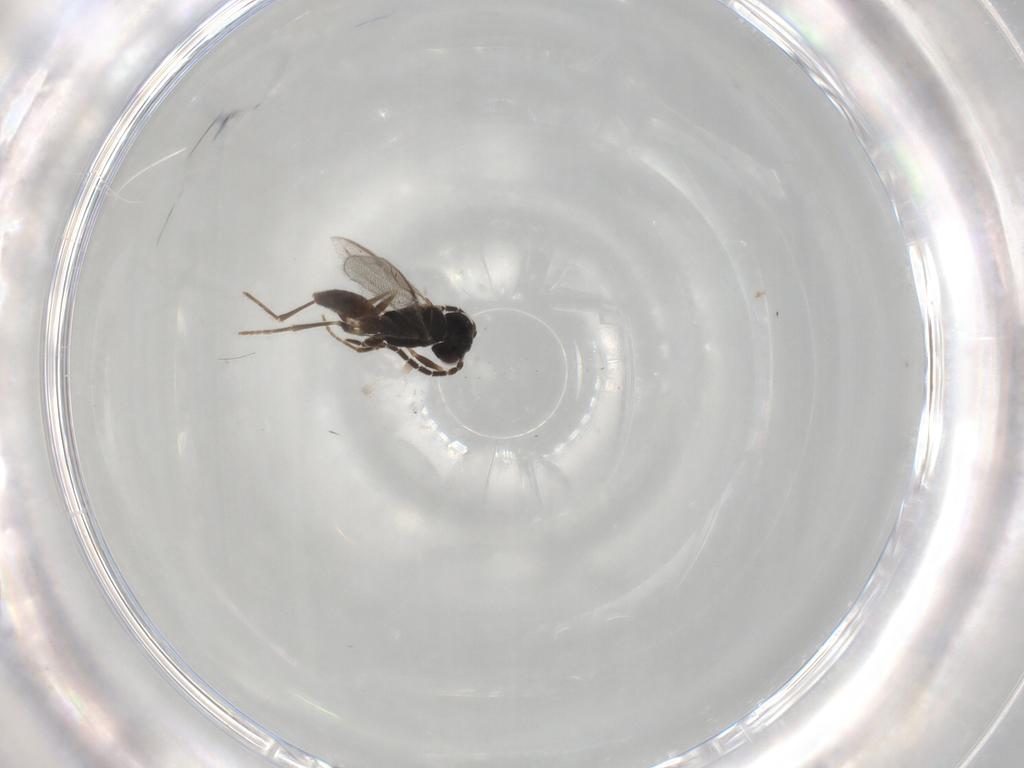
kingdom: Animalia
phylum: Arthropoda
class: Insecta
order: Hymenoptera
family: Dryinidae
